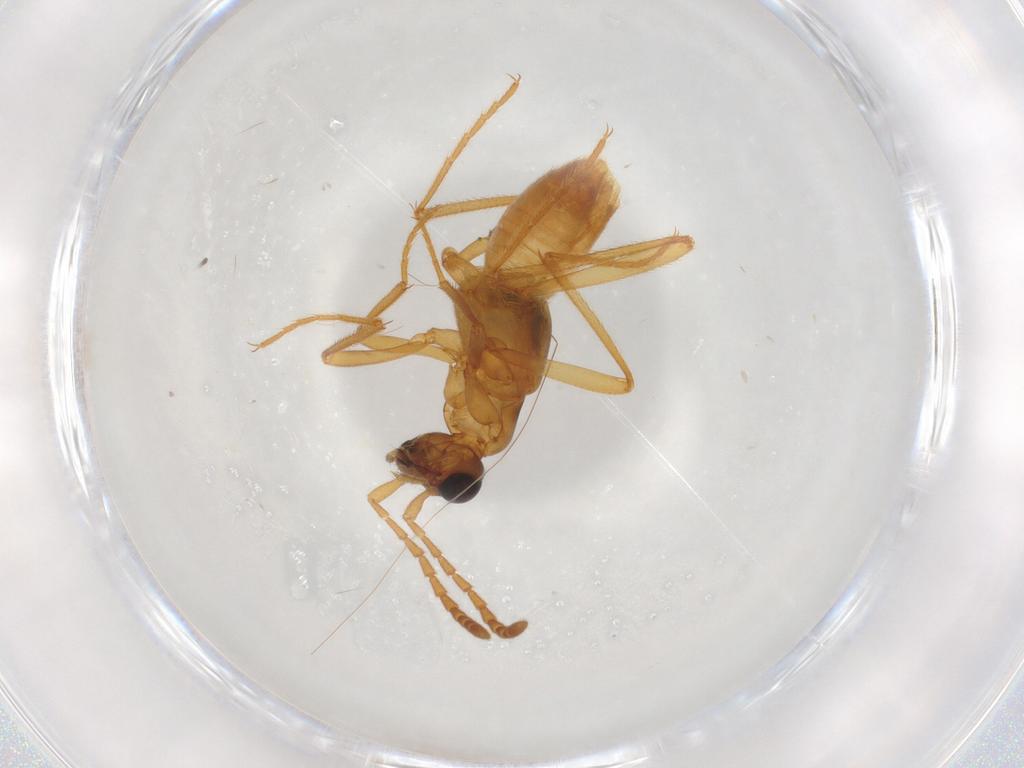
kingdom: Animalia
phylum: Arthropoda
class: Insecta
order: Coleoptera
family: Staphylinidae
